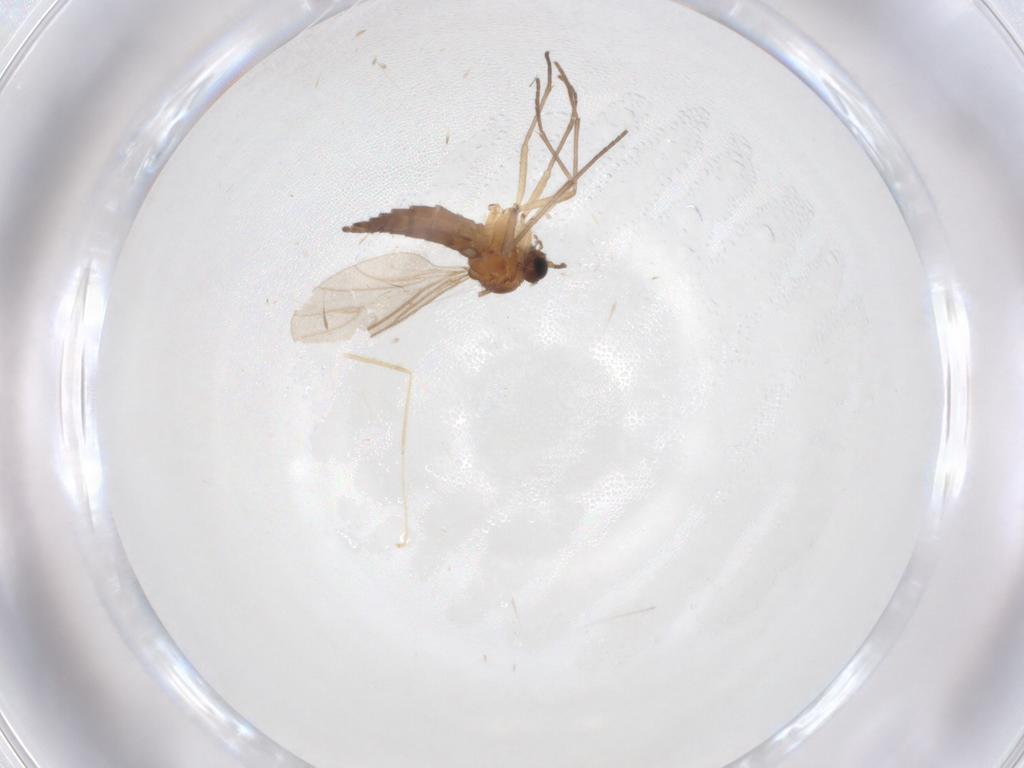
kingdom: Animalia
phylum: Arthropoda
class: Insecta
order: Diptera
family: Sciaridae
